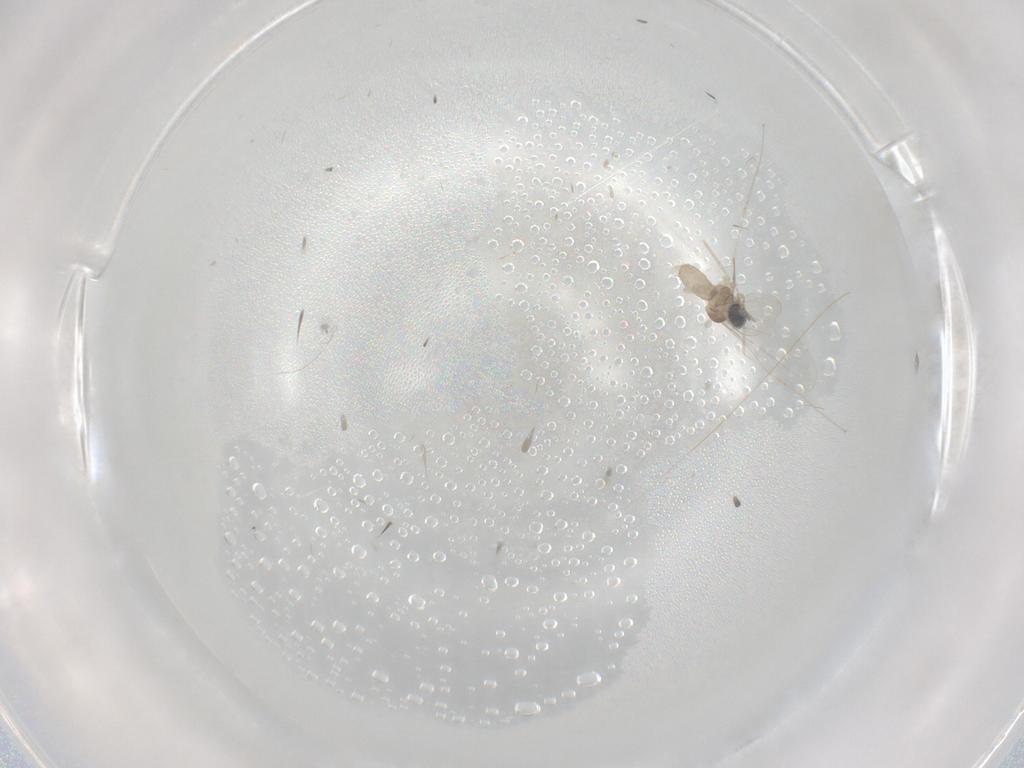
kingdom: Animalia
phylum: Arthropoda
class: Insecta
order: Diptera
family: Cecidomyiidae
